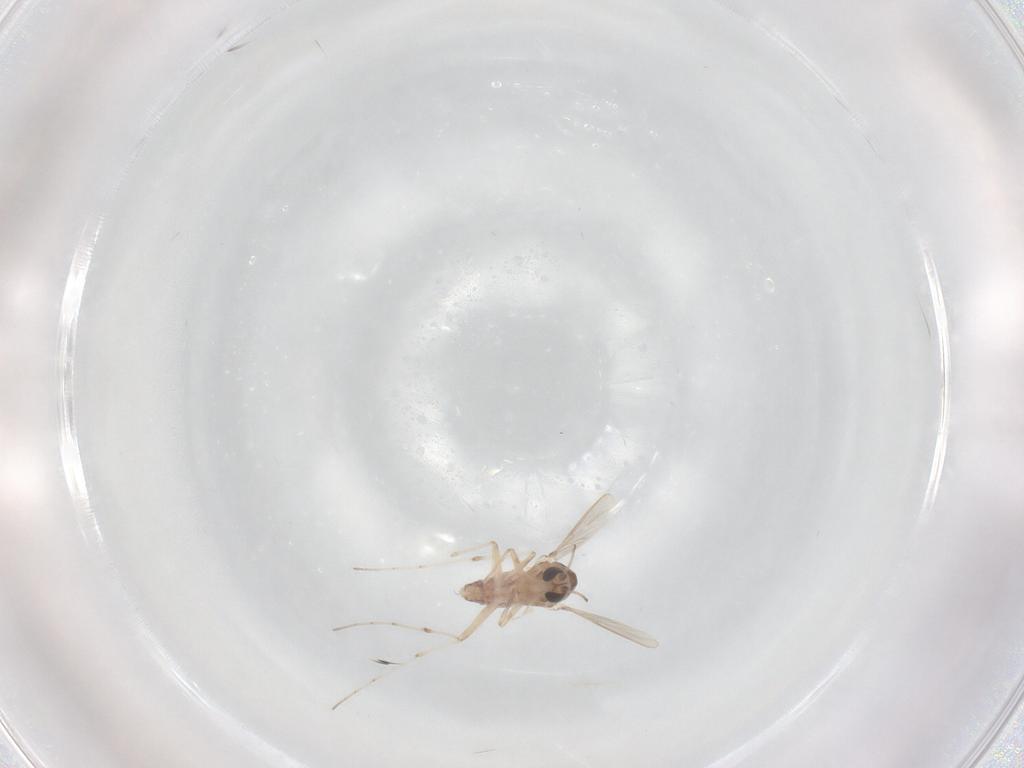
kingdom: Animalia
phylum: Arthropoda
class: Insecta
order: Diptera
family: Chironomidae
